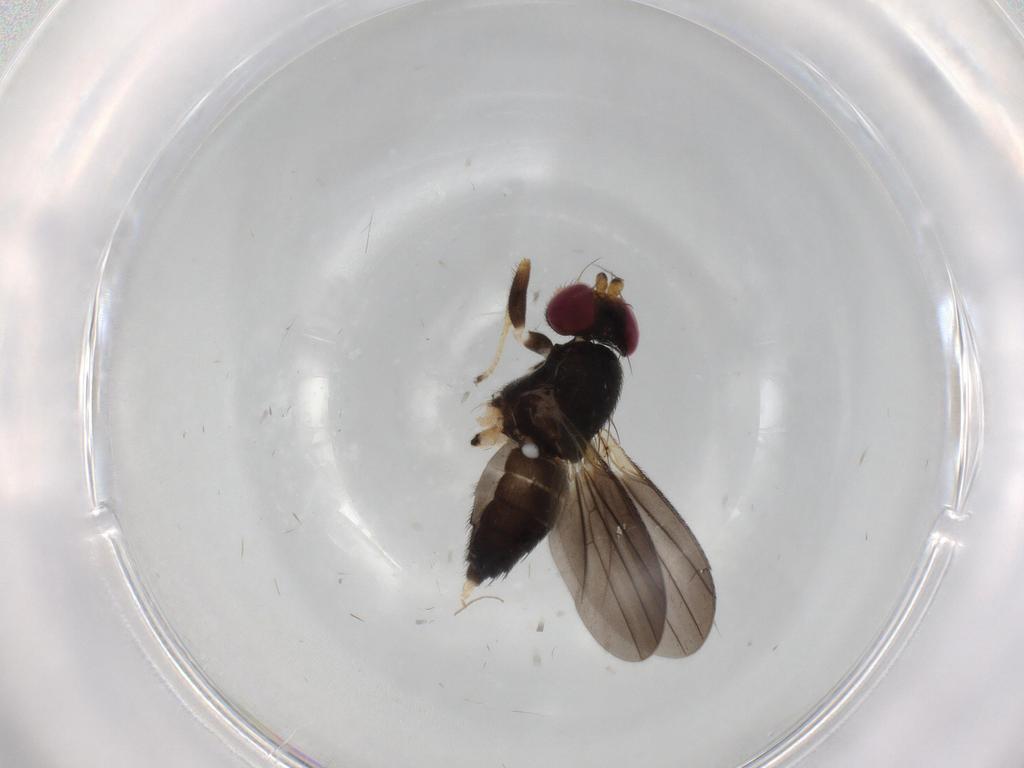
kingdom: Animalia
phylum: Arthropoda
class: Insecta
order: Diptera
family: Clusiidae
